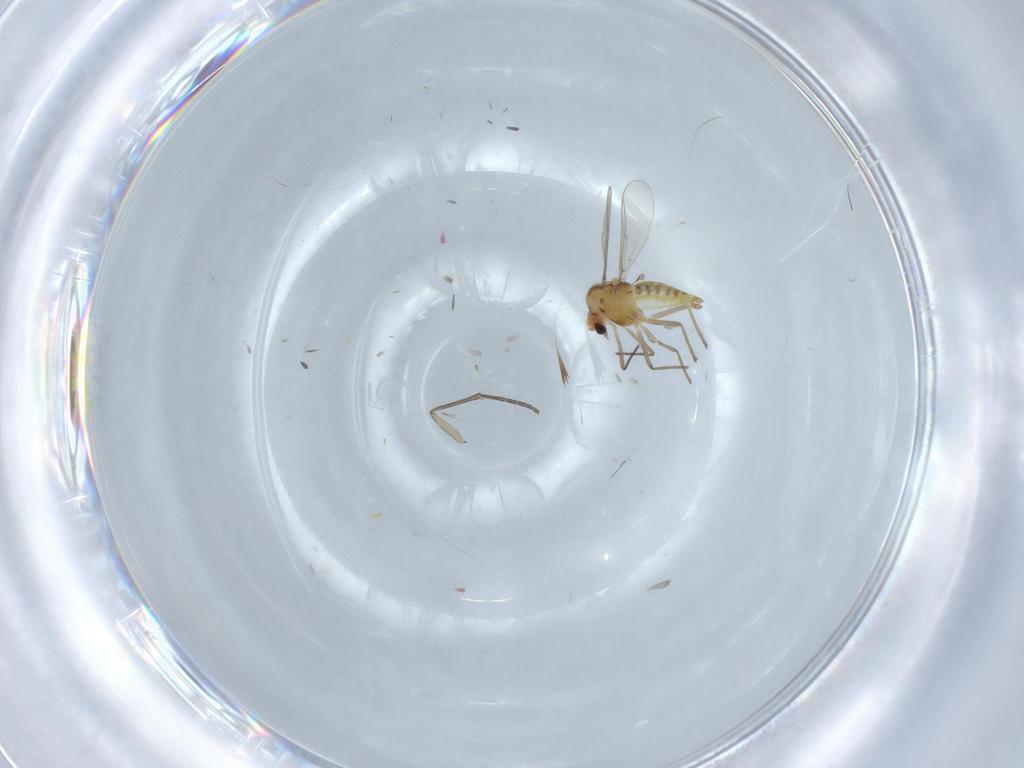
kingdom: Animalia
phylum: Arthropoda
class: Insecta
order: Diptera
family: Chironomidae
